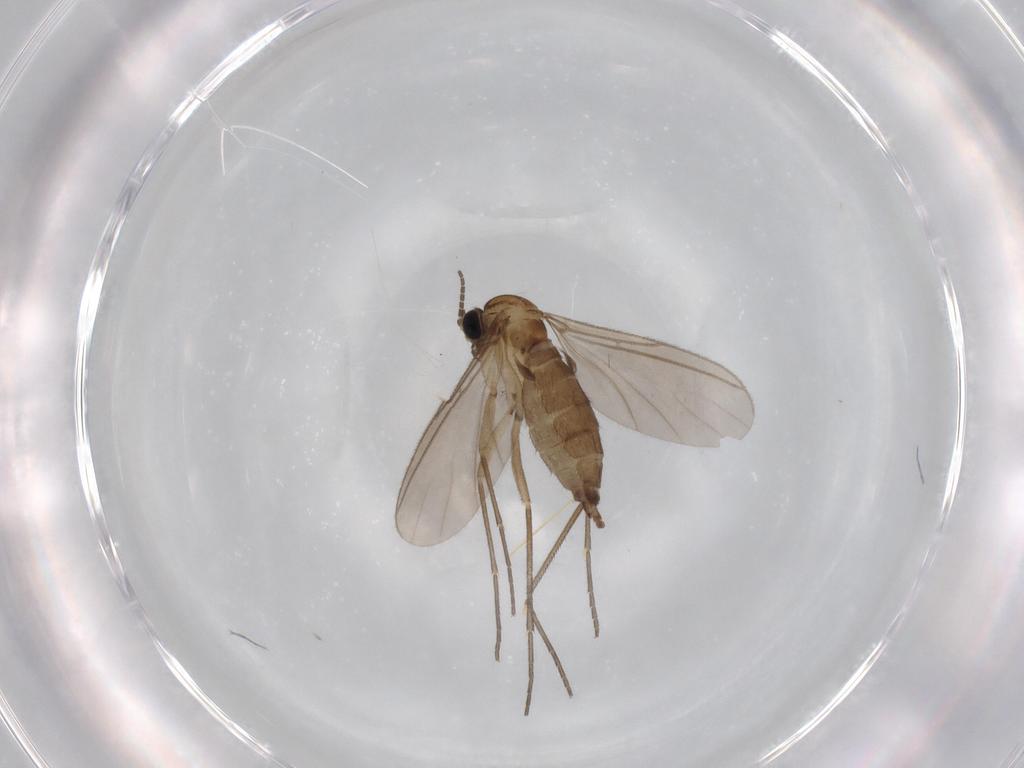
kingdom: Animalia
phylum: Arthropoda
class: Insecta
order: Diptera
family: Sciaridae
